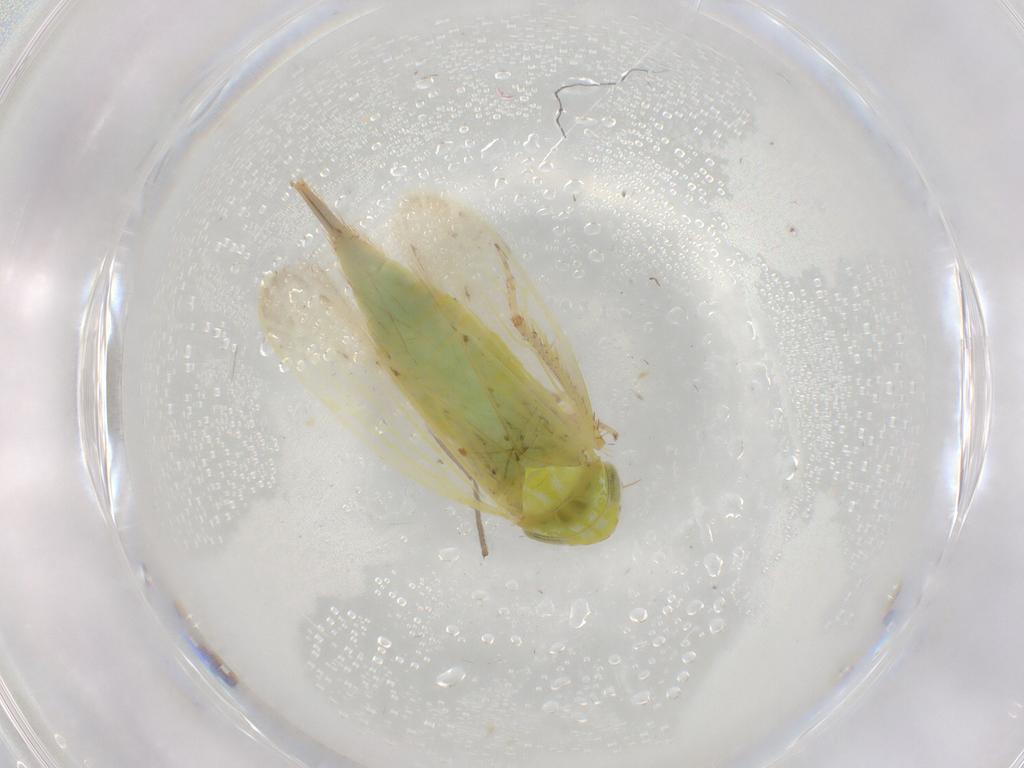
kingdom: Animalia
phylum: Arthropoda
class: Insecta
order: Hemiptera
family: Cicadellidae
